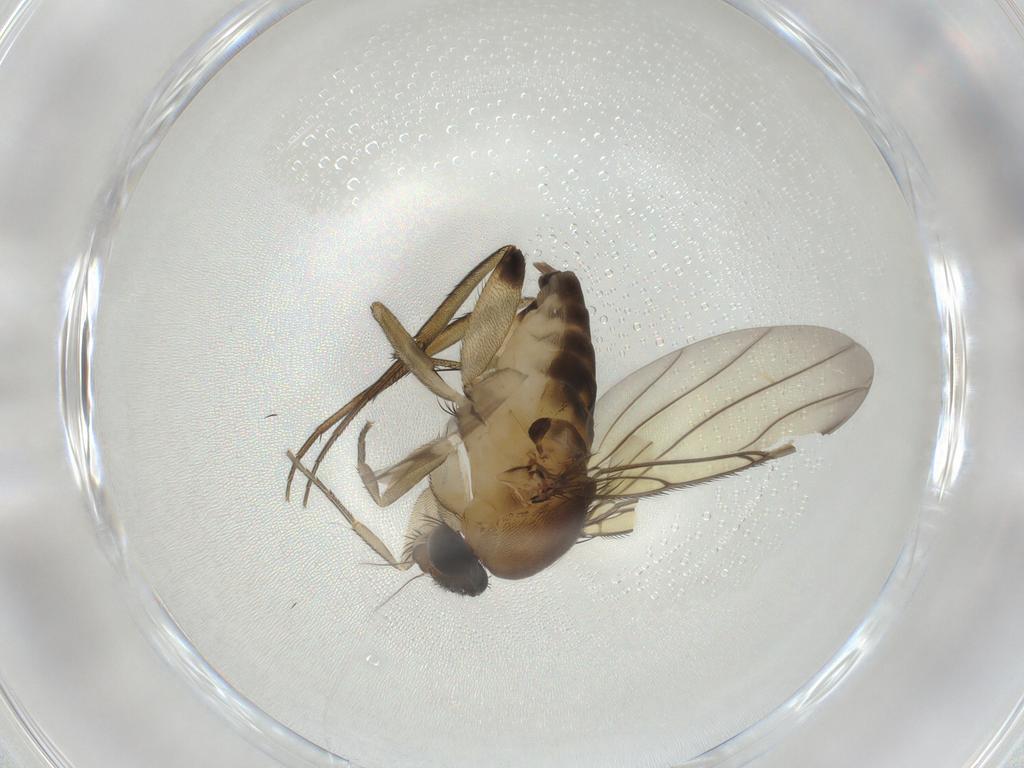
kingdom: Animalia
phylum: Arthropoda
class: Insecta
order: Diptera
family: Phoridae
